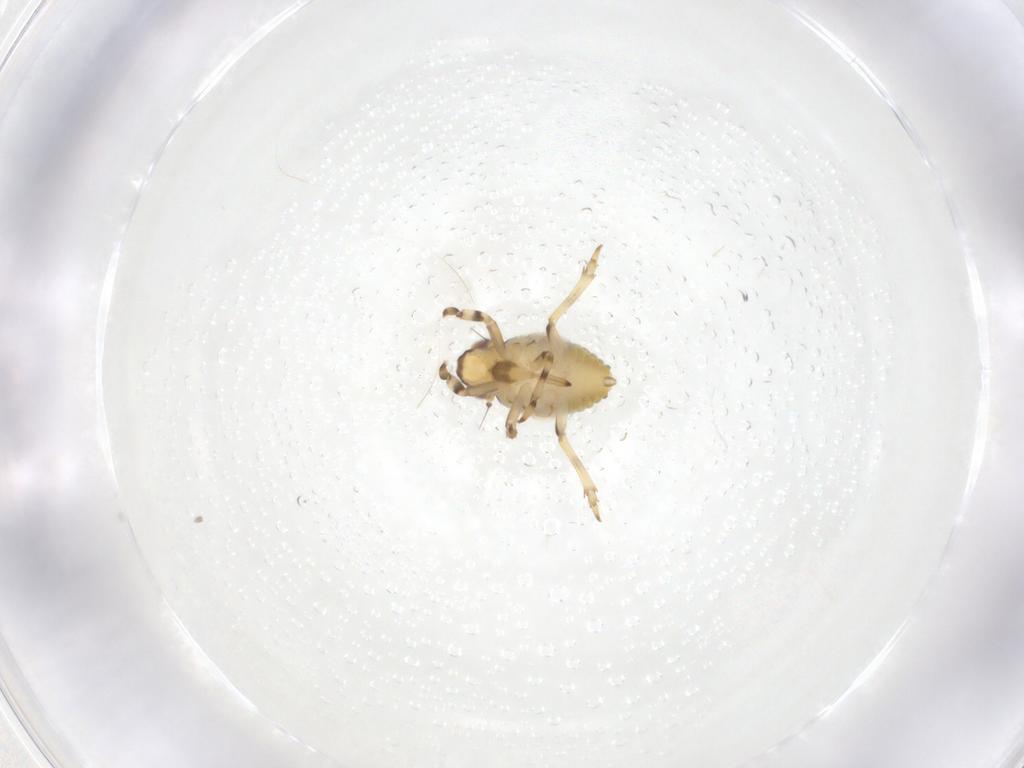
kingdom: Animalia
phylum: Arthropoda
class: Insecta
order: Hemiptera
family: Issidae
